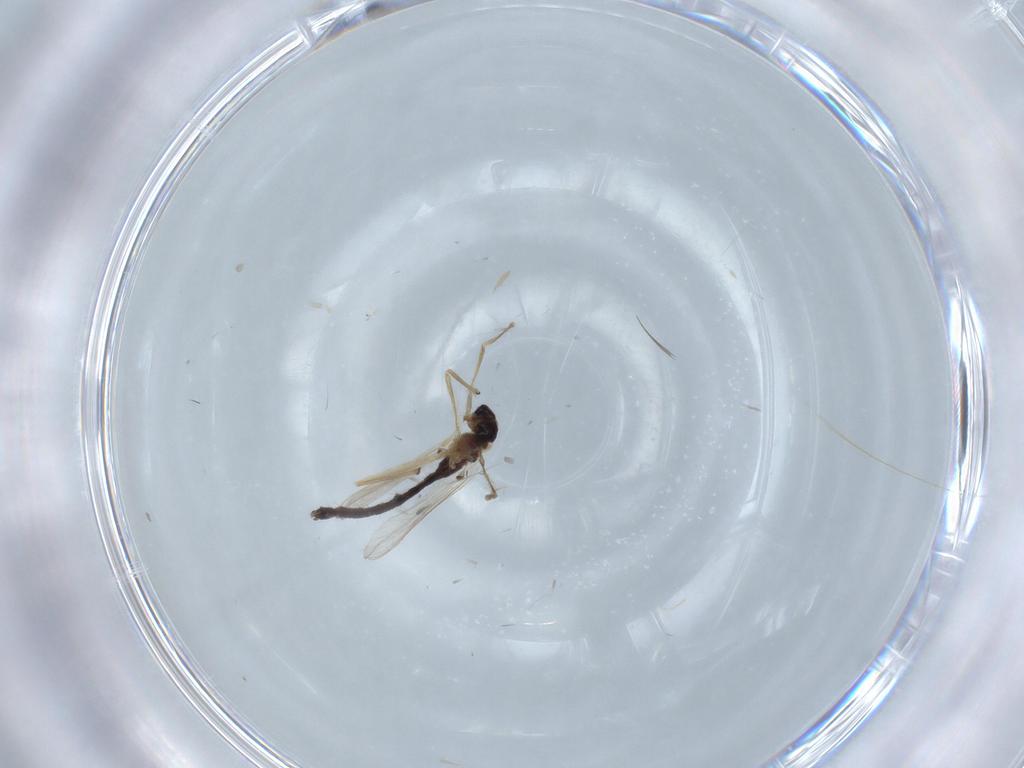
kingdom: Animalia
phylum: Arthropoda
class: Insecta
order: Diptera
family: Chironomidae
